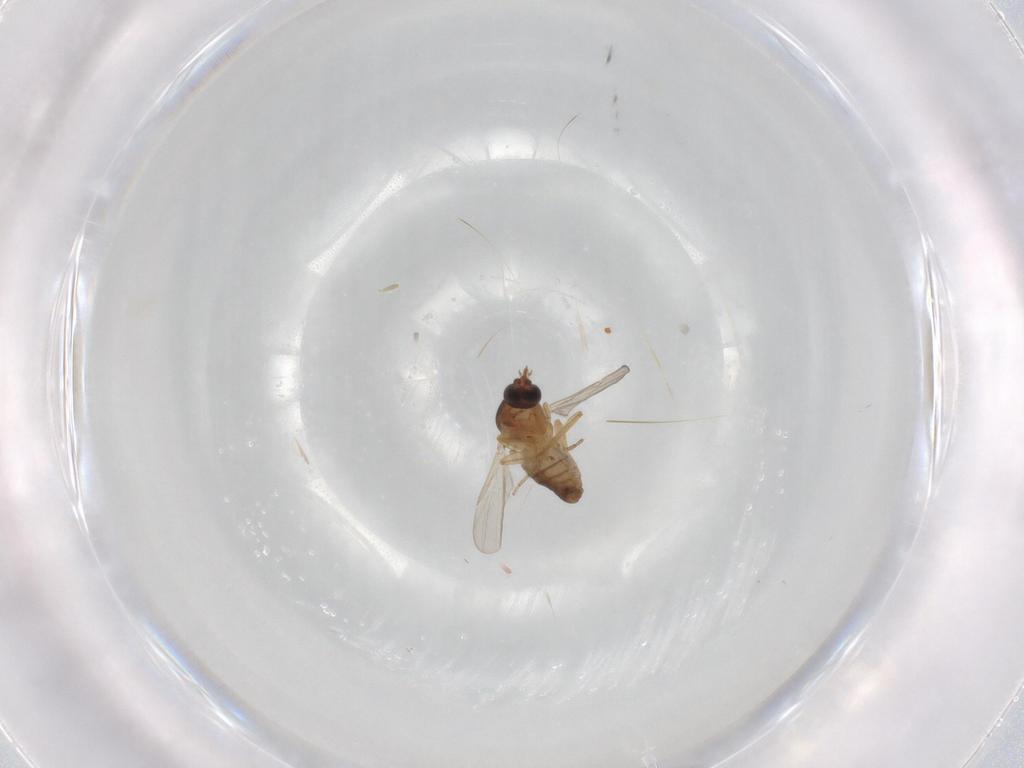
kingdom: Animalia
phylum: Arthropoda
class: Insecta
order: Diptera
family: Ceratopogonidae
